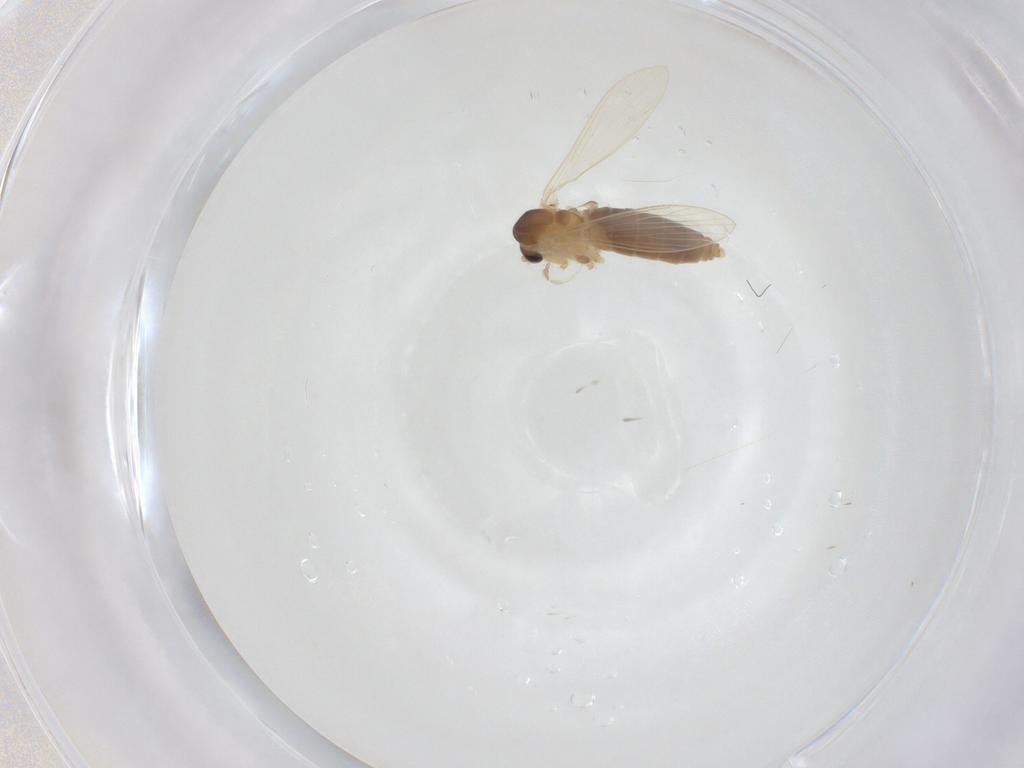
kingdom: Animalia
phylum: Arthropoda
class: Insecta
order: Diptera
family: Psychodidae
